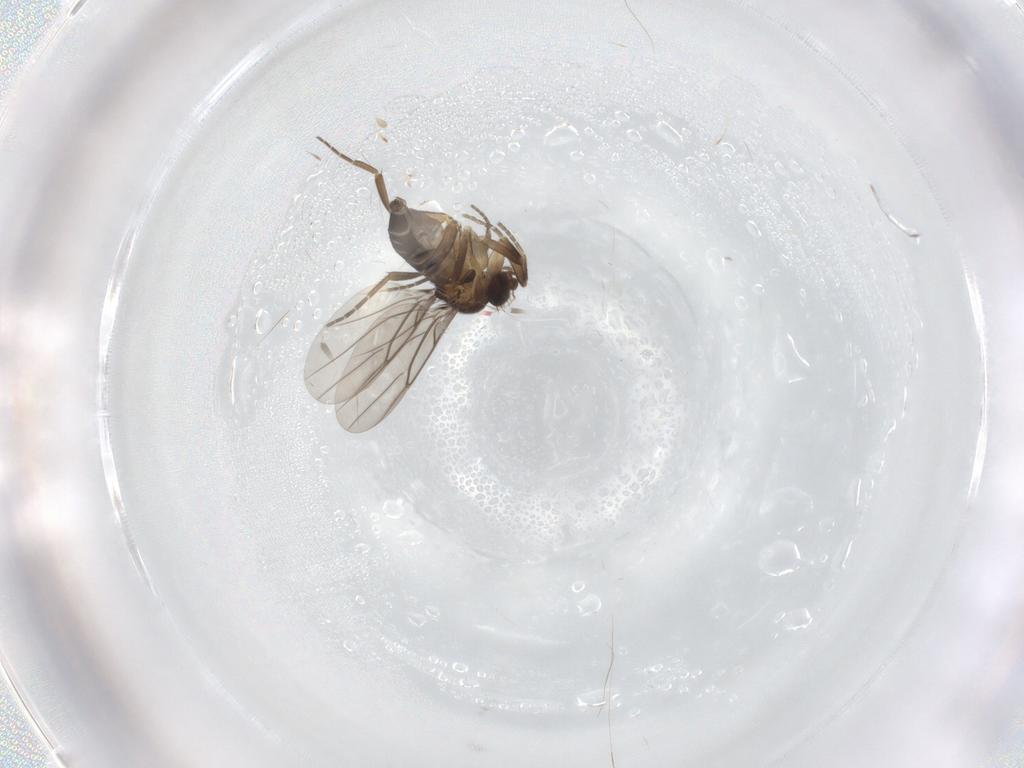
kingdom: Animalia
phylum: Arthropoda
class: Insecta
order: Diptera
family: Phoridae
